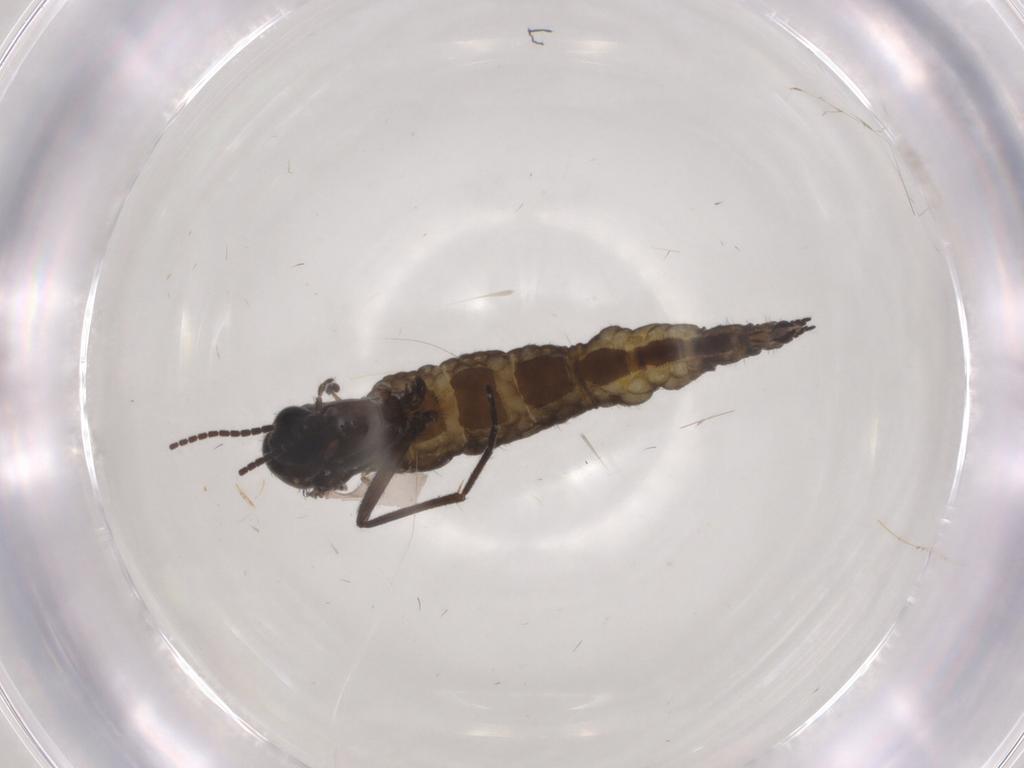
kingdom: Animalia
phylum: Arthropoda
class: Insecta
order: Diptera
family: Sciaridae
